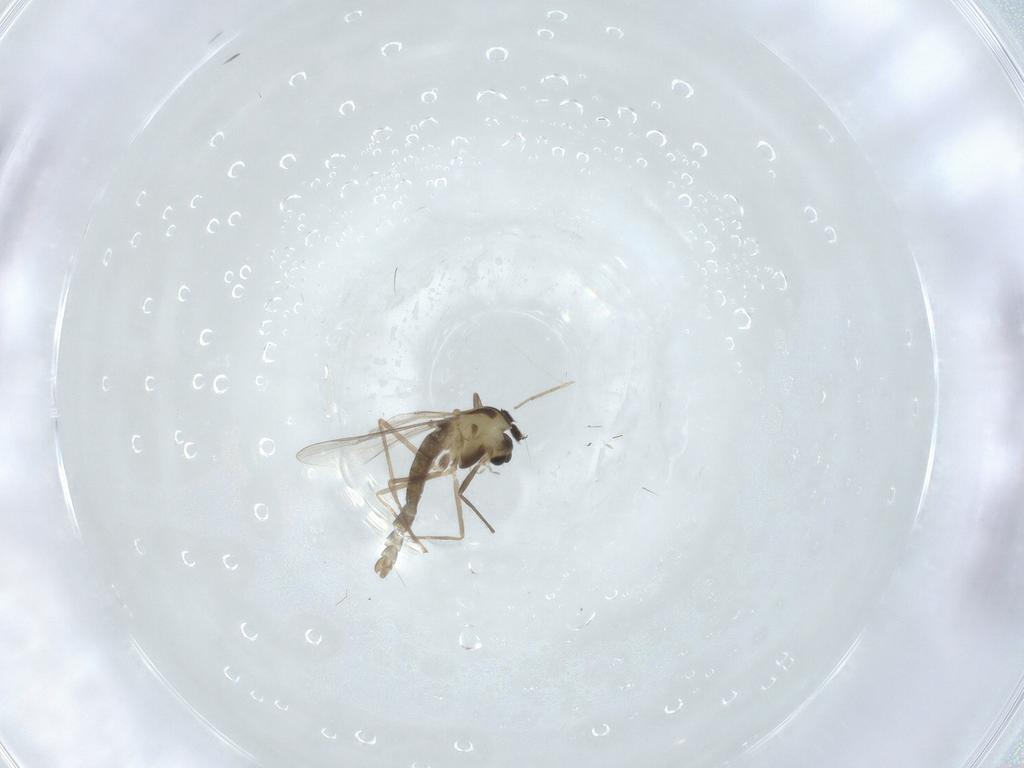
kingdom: Animalia
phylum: Arthropoda
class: Insecta
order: Diptera
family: Chironomidae
